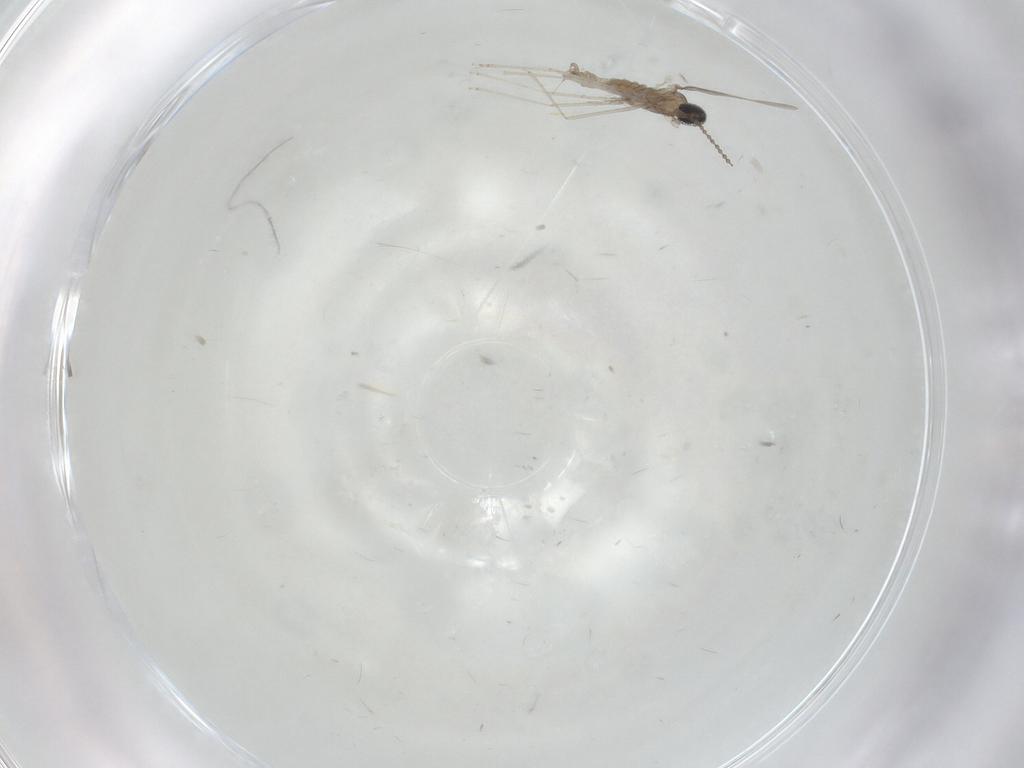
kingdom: Animalia
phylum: Arthropoda
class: Insecta
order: Diptera
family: Cecidomyiidae
